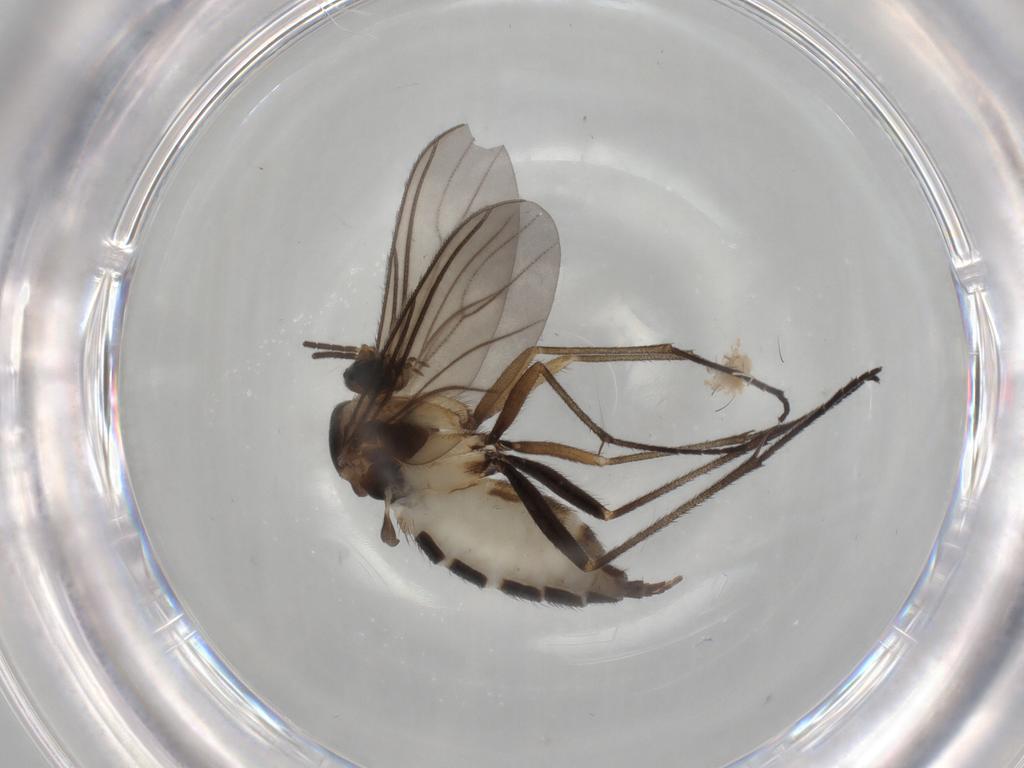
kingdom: Animalia
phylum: Arthropoda
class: Insecta
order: Diptera
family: Sciaridae
